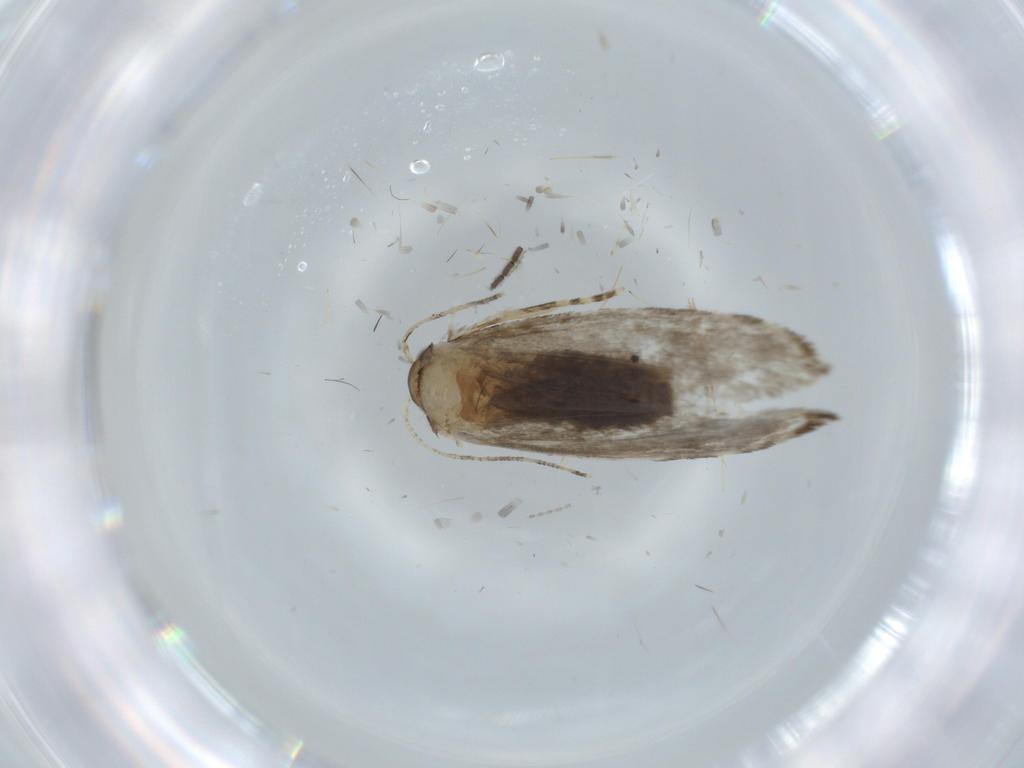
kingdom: Animalia
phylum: Arthropoda
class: Insecta
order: Lepidoptera
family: Tineidae
